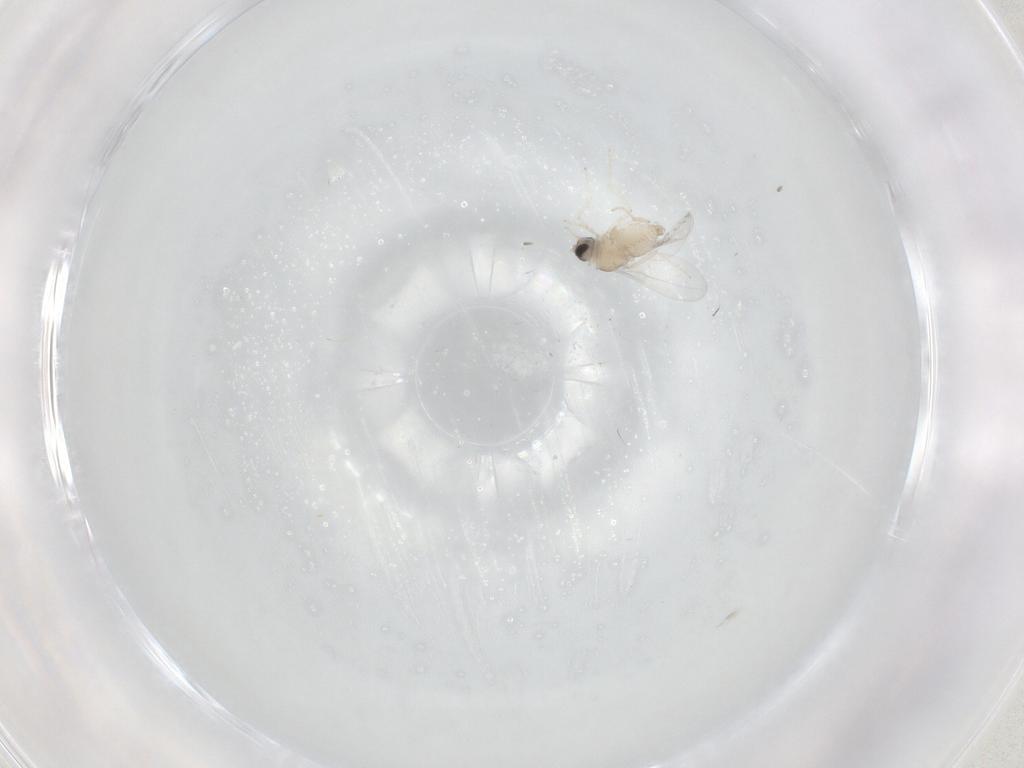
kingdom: Animalia
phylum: Arthropoda
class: Insecta
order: Diptera
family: Cecidomyiidae
